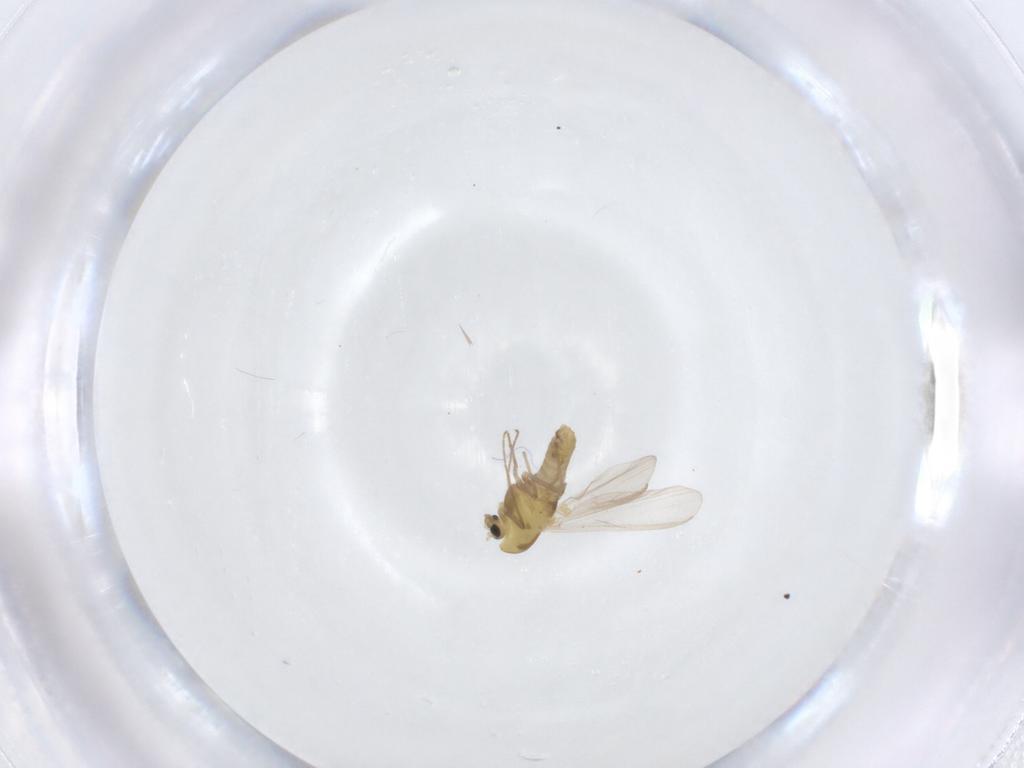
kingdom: Animalia
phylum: Arthropoda
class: Insecta
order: Diptera
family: Chironomidae
